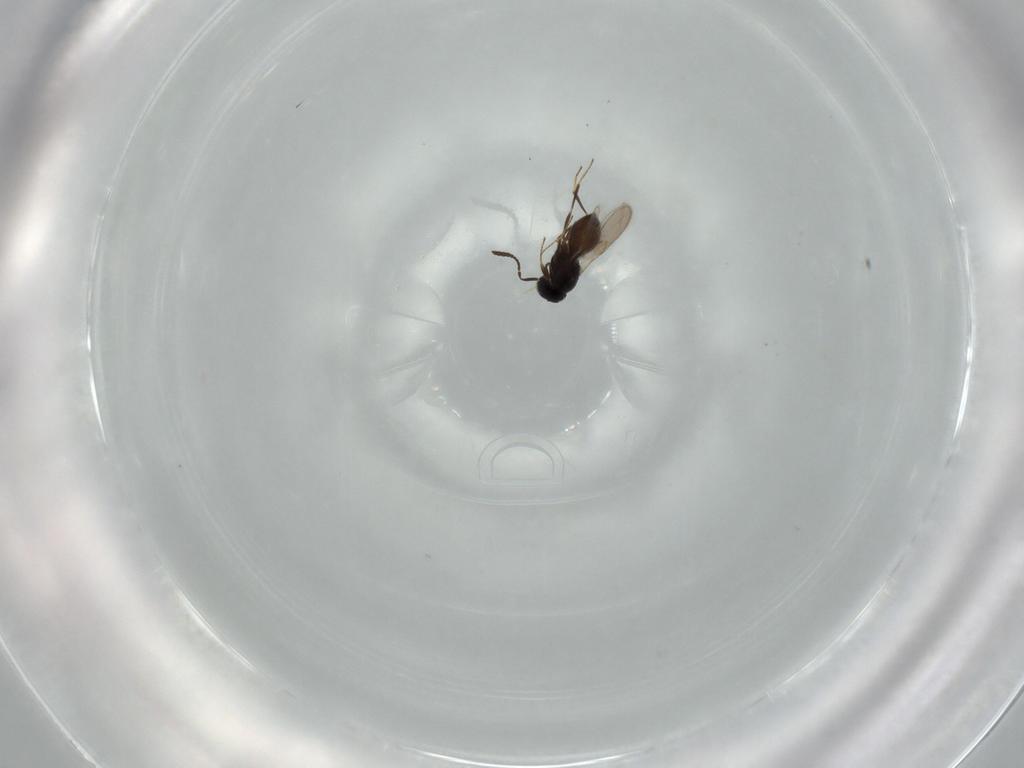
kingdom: Animalia
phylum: Arthropoda
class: Insecta
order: Hymenoptera
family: Scelionidae
